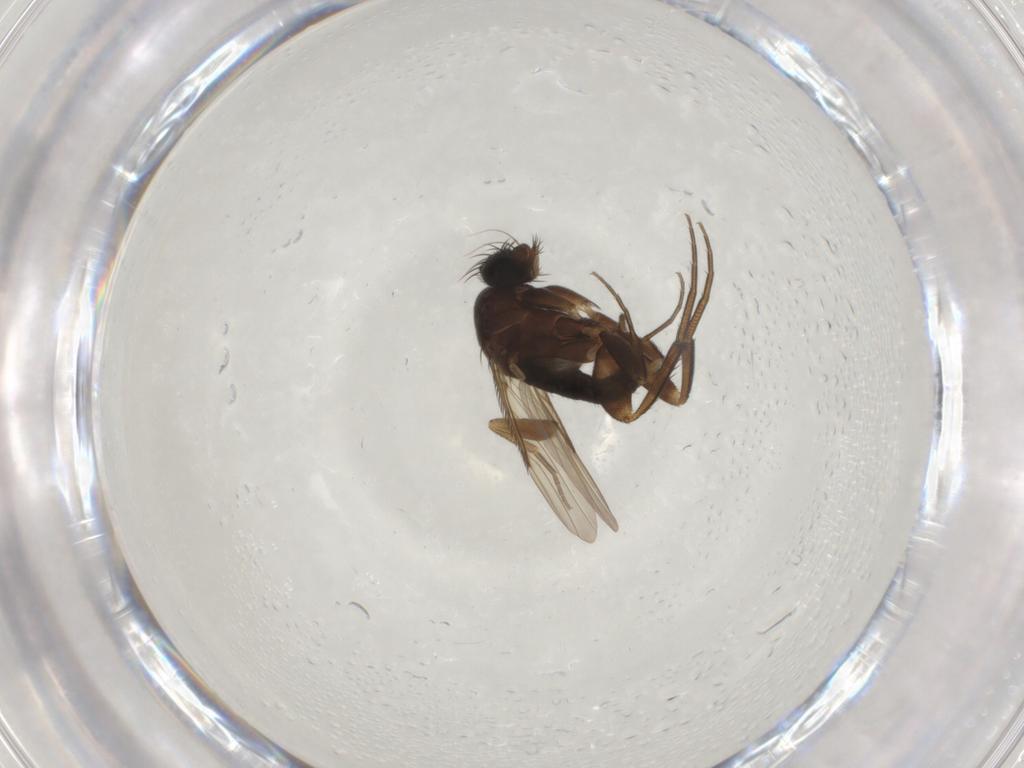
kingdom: Animalia
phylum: Arthropoda
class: Insecta
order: Diptera
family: Phoridae
